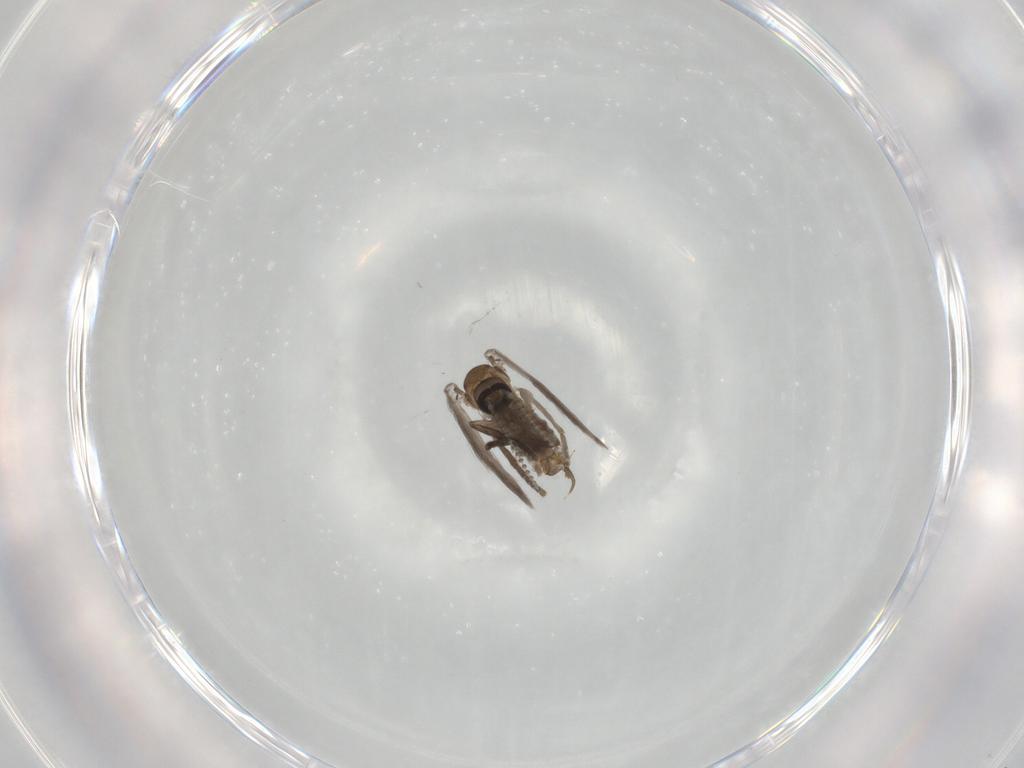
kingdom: Animalia
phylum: Arthropoda
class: Insecta
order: Diptera
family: Psychodidae
